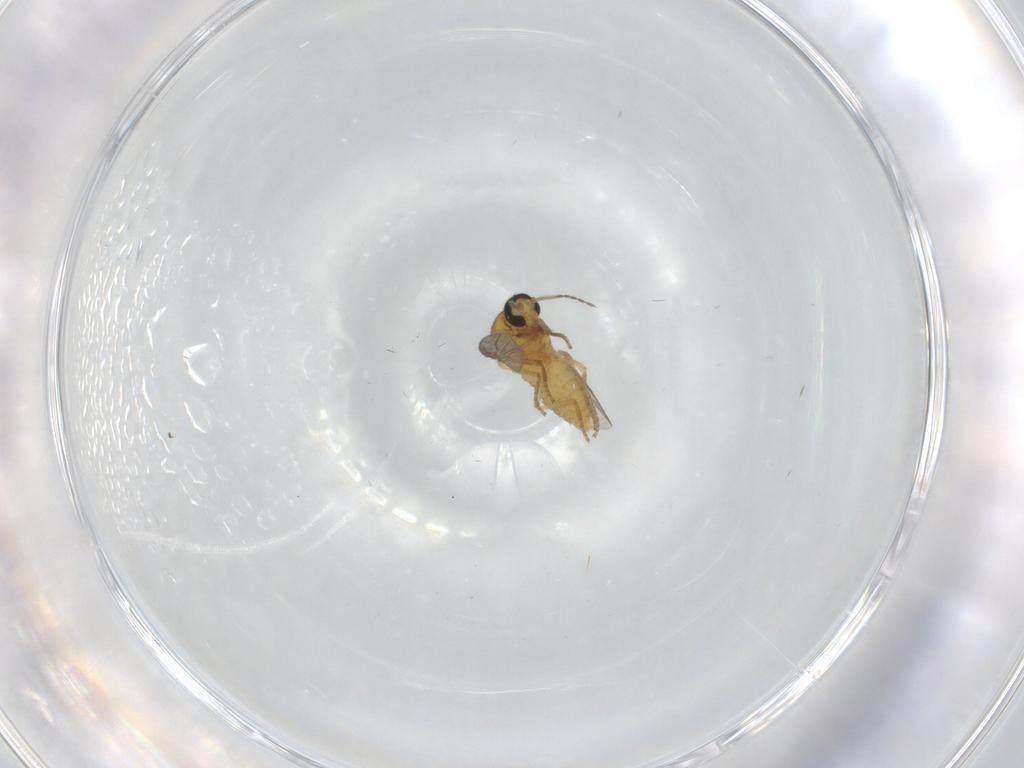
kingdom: Animalia
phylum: Arthropoda
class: Insecta
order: Diptera
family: Ceratopogonidae
